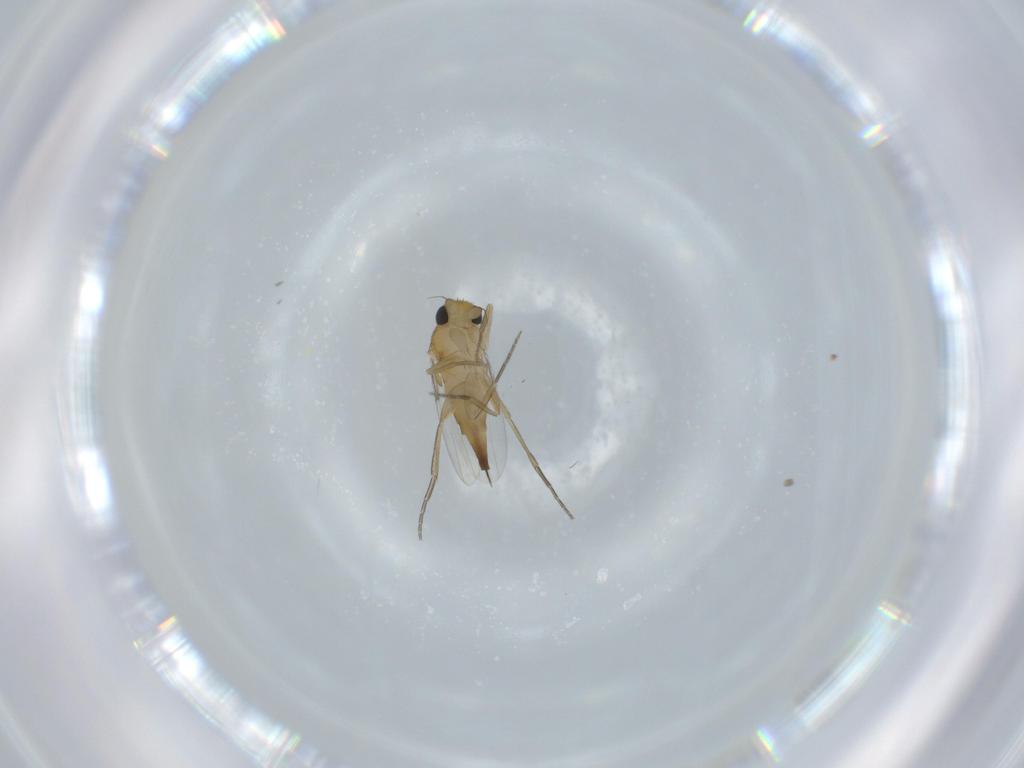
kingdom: Animalia
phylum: Arthropoda
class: Insecta
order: Diptera
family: Phoridae
